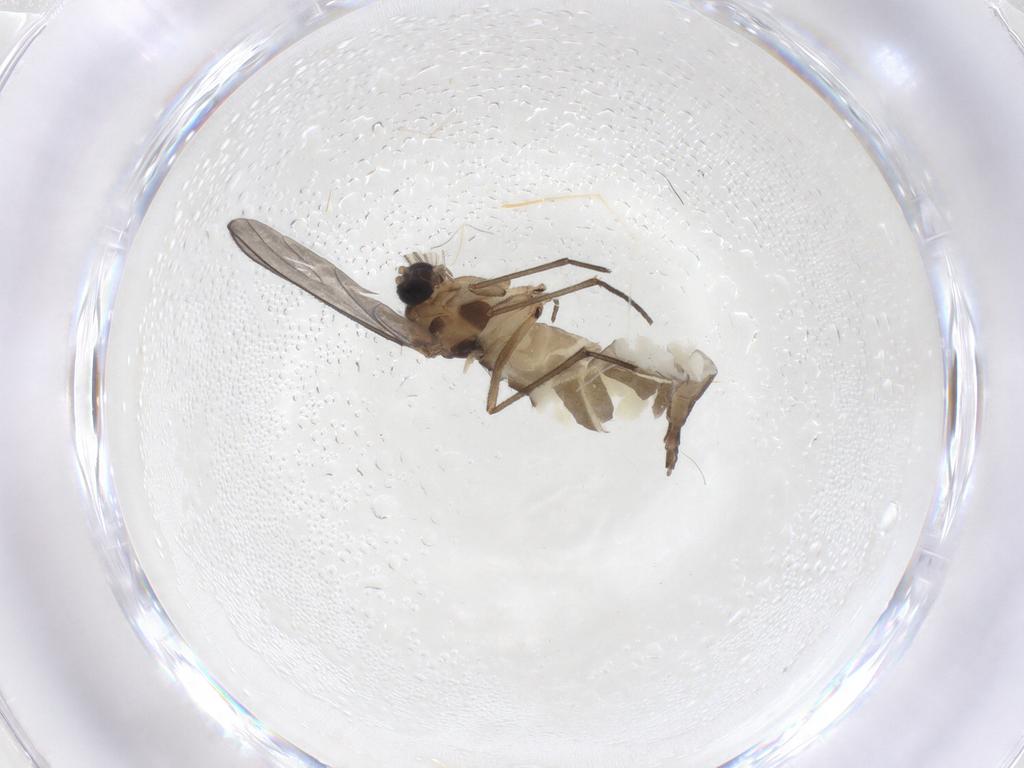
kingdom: Animalia
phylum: Arthropoda
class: Insecta
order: Diptera
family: Sciaridae
